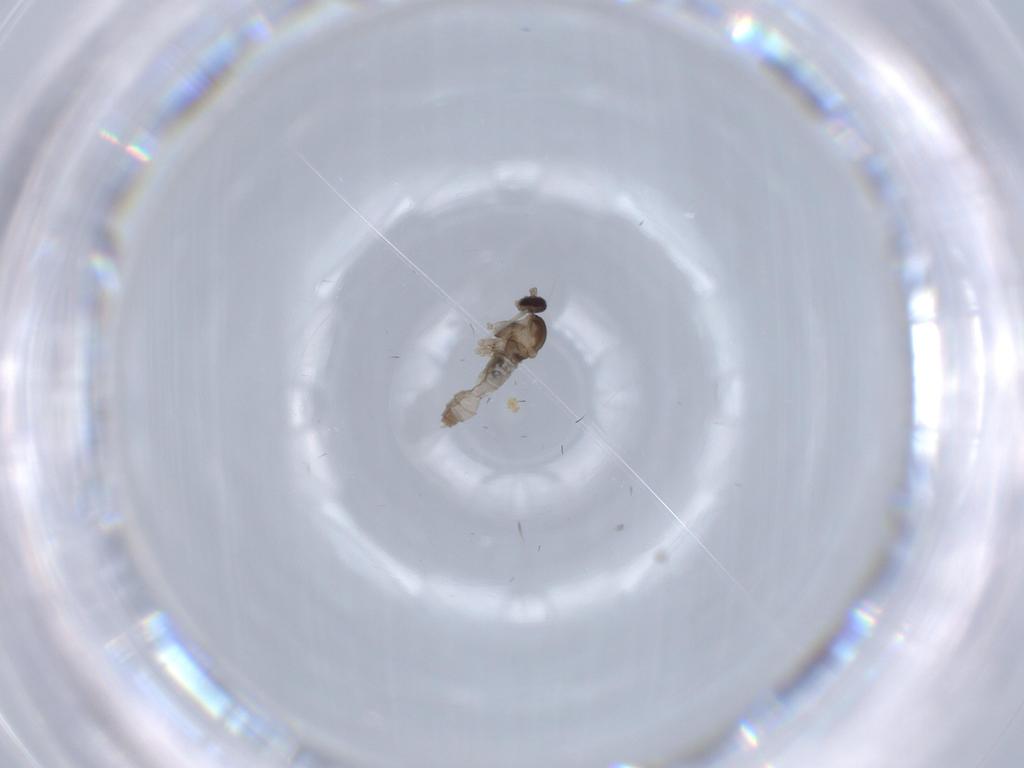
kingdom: Animalia
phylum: Arthropoda
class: Insecta
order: Diptera
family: Cecidomyiidae
